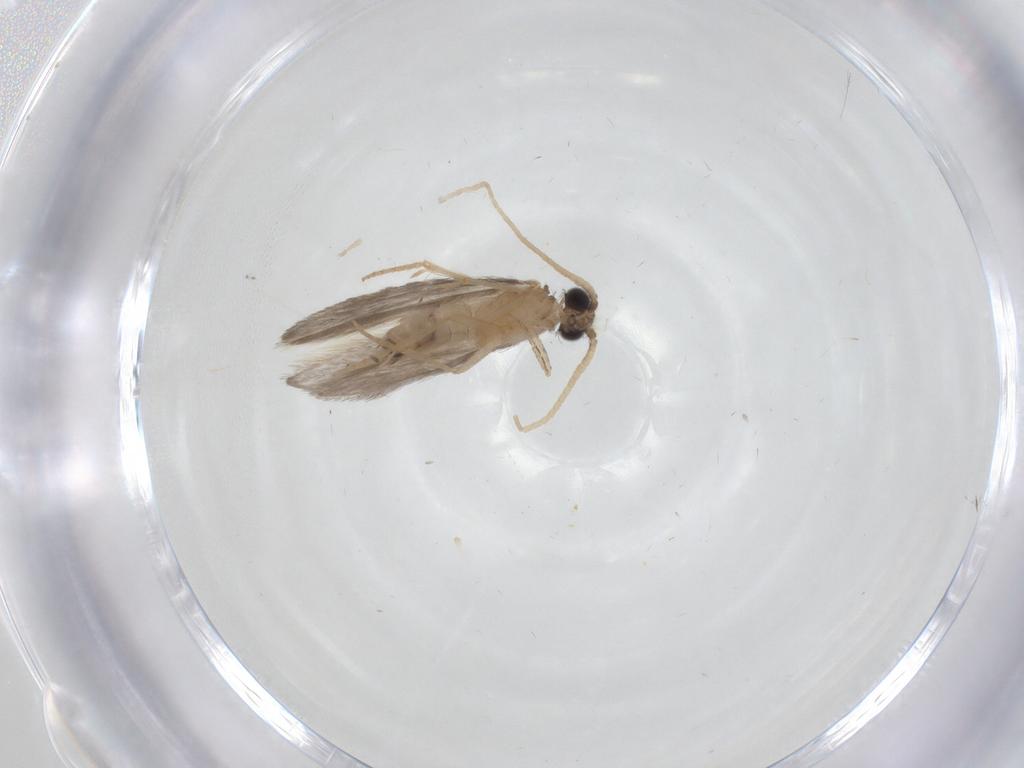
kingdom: Animalia
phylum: Arthropoda
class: Insecta
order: Trichoptera
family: Hydroptilidae
